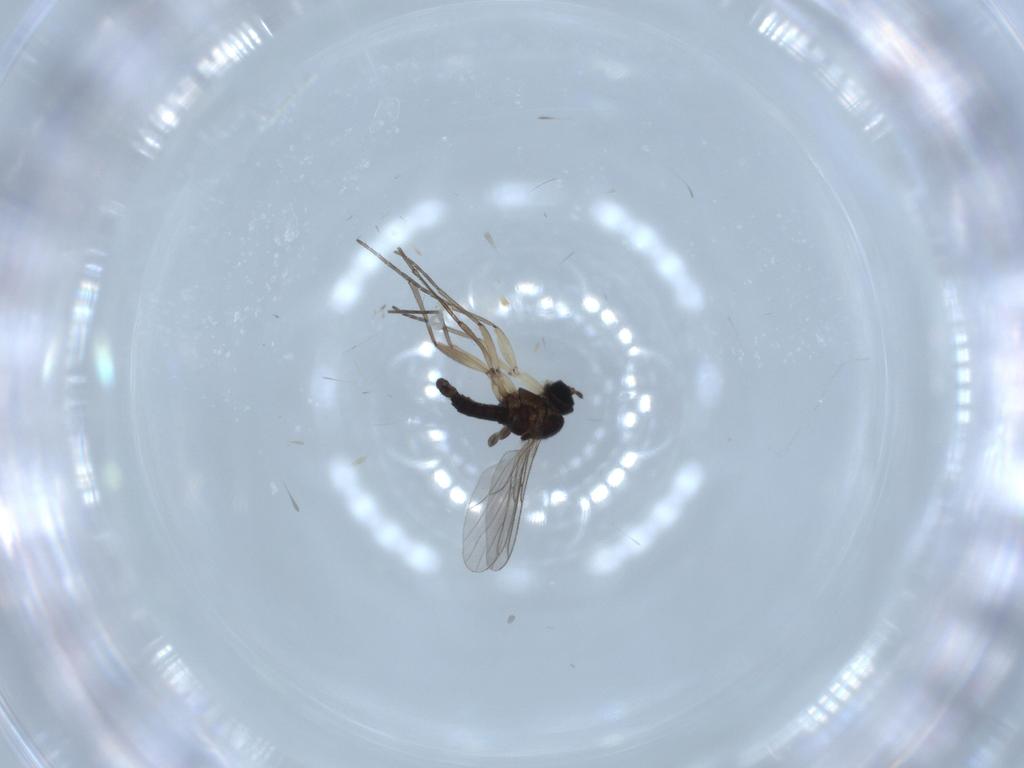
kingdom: Animalia
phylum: Arthropoda
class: Insecta
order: Diptera
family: Sciaridae
